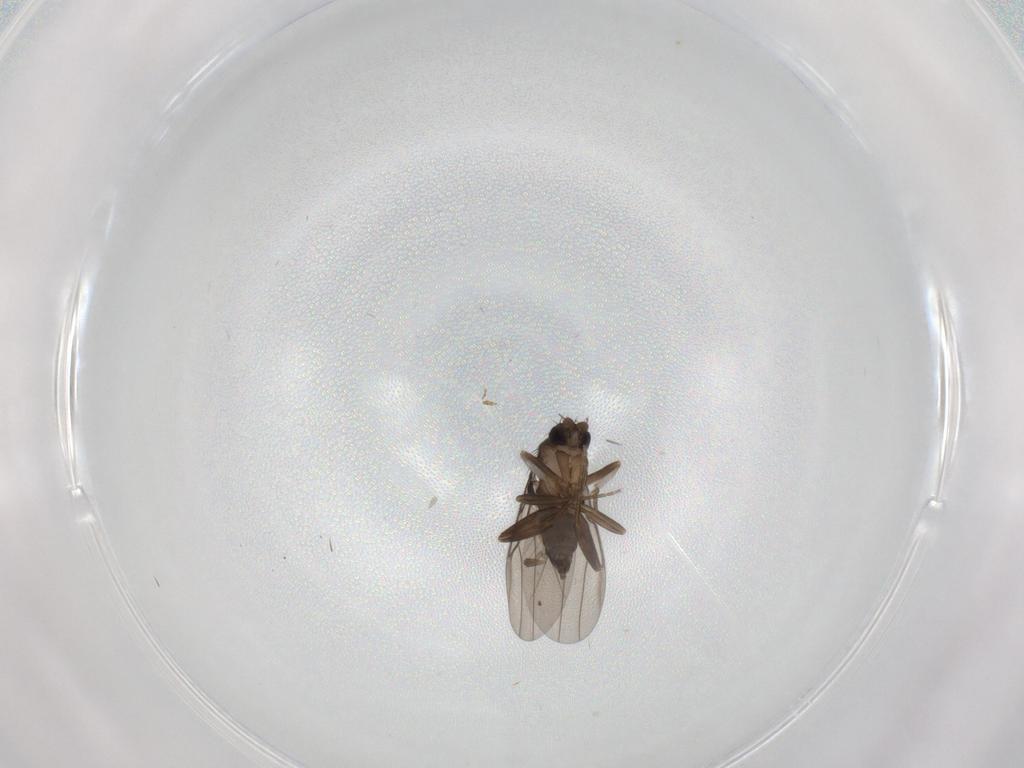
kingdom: Animalia
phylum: Arthropoda
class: Insecta
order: Diptera
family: Phoridae
